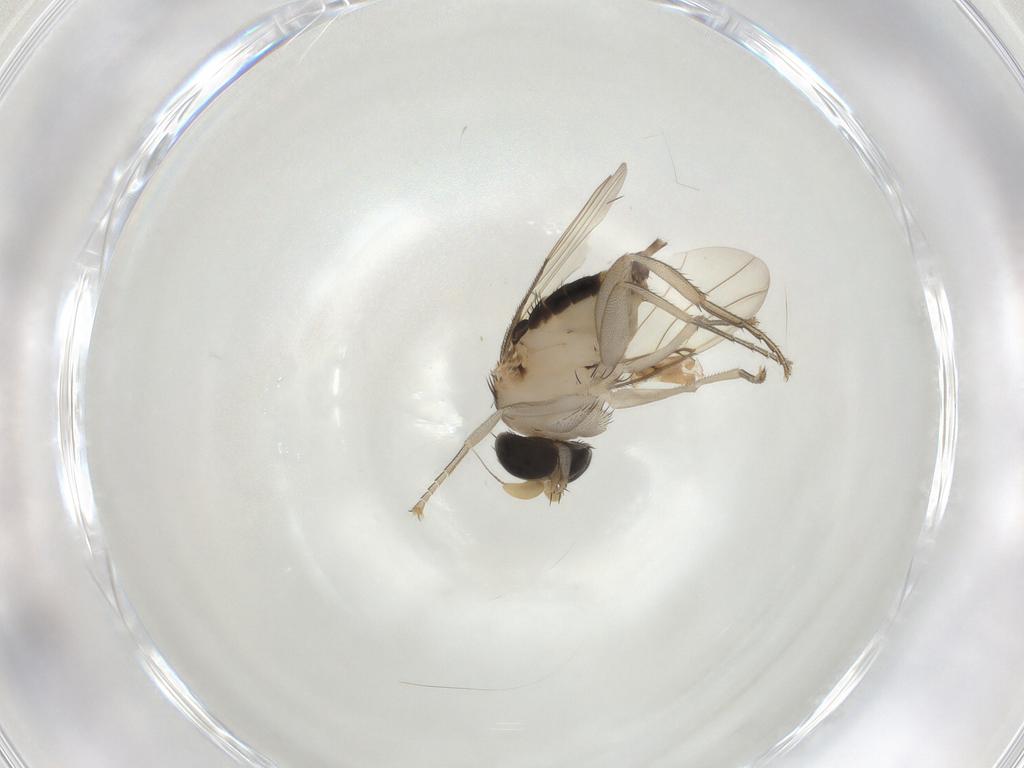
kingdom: Animalia
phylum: Arthropoda
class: Insecta
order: Diptera
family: Phoridae
